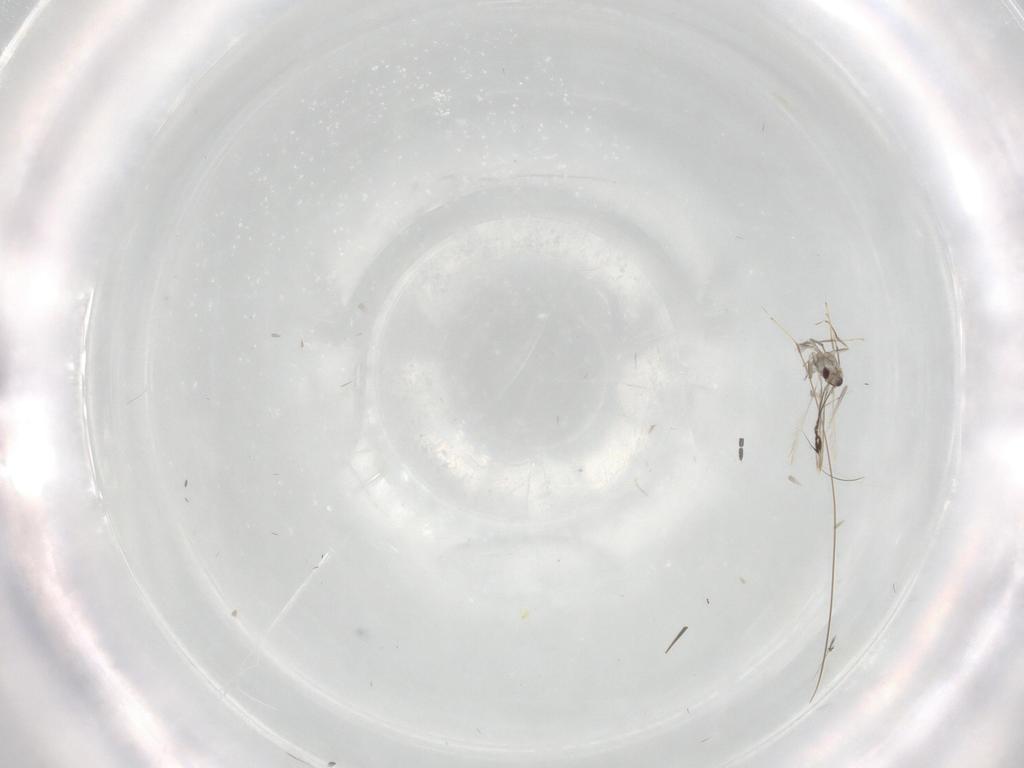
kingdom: Animalia
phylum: Arthropoda
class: Insecta
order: Hymenoptera
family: Mymaridae
